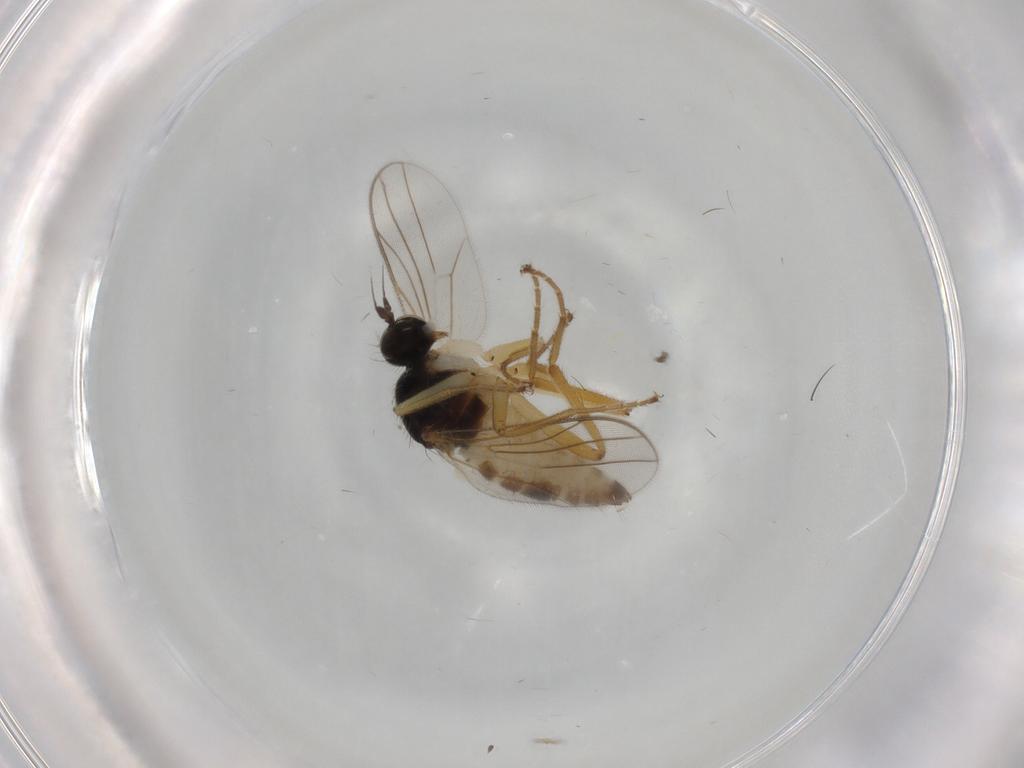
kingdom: Animalia
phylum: Arthropoda
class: Insecta
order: Diptera
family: Hybotidae
